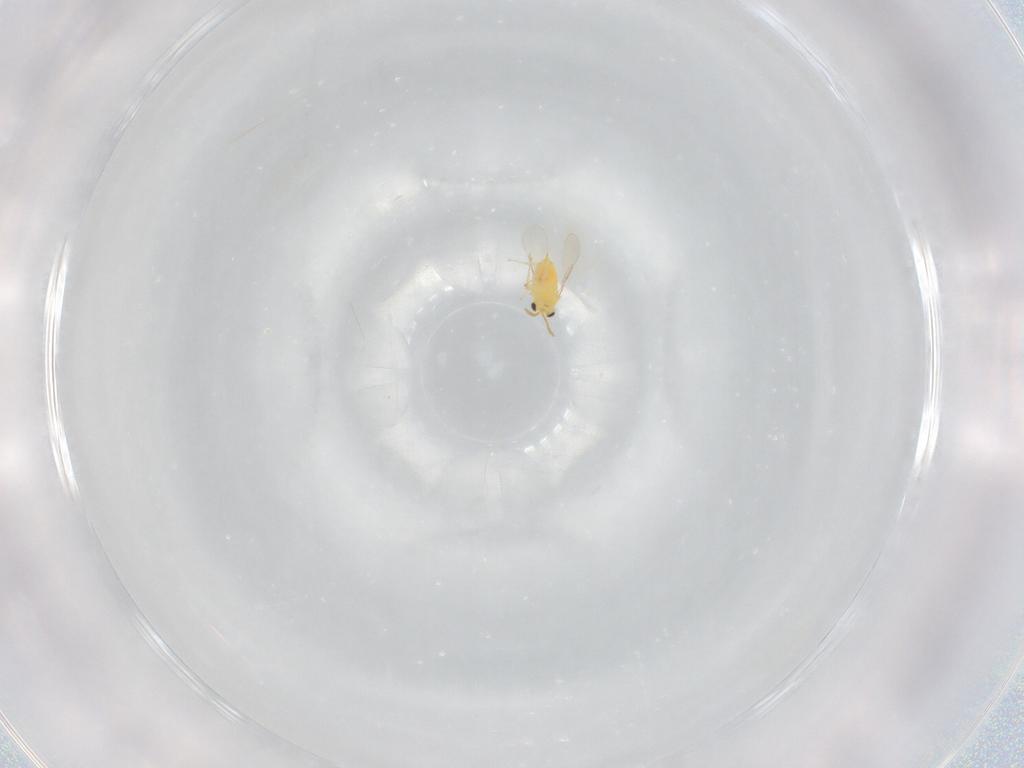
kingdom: Animalia
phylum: Arthropoda
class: Insecta
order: Hymenoptera
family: Aphelinidae
